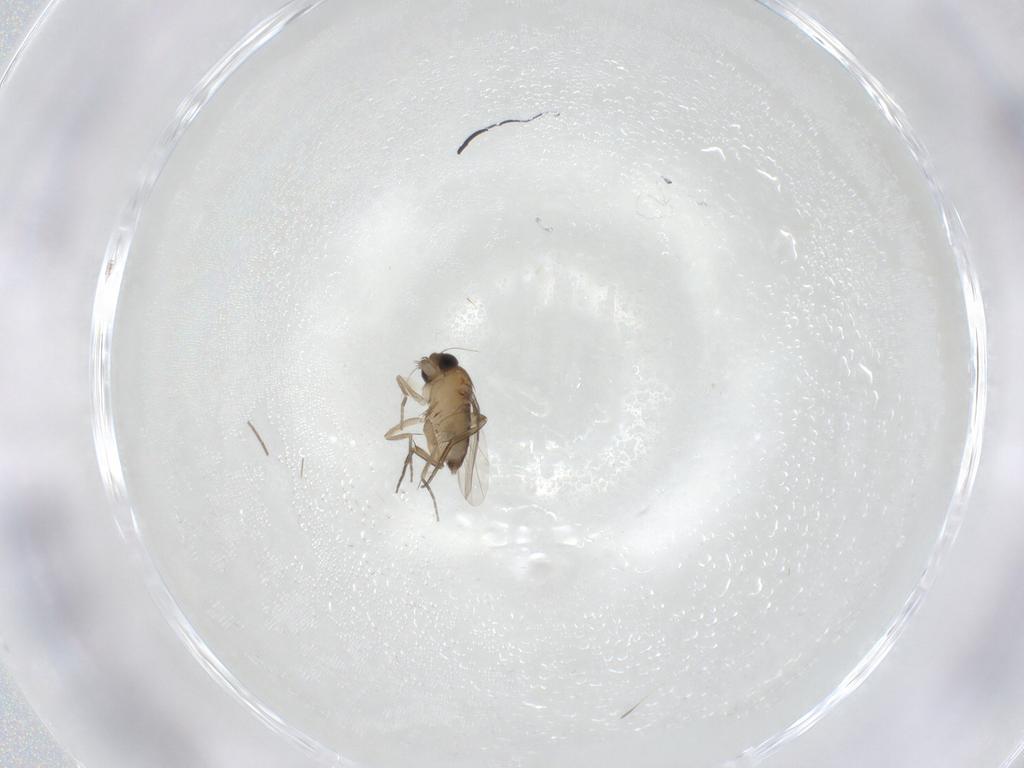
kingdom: Animalia
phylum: Arthropoda
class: Insecta
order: Diptera
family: Phoridae
